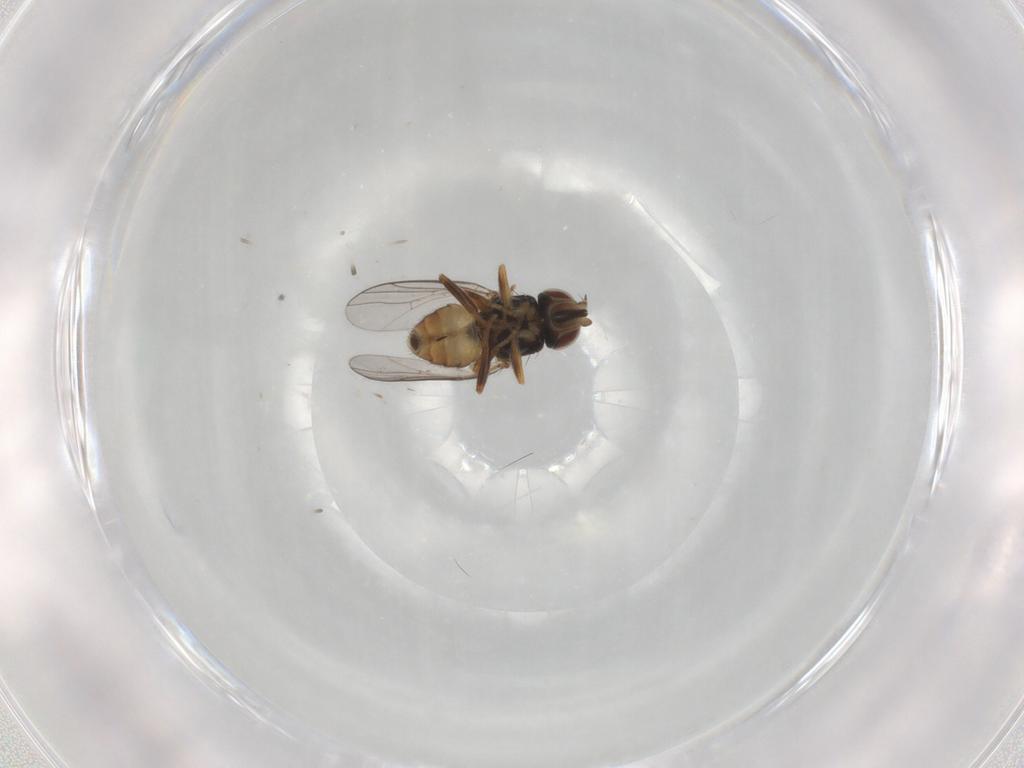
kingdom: Animalia
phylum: Arthropoda
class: Insecta
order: Diptera
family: Chloropidae
